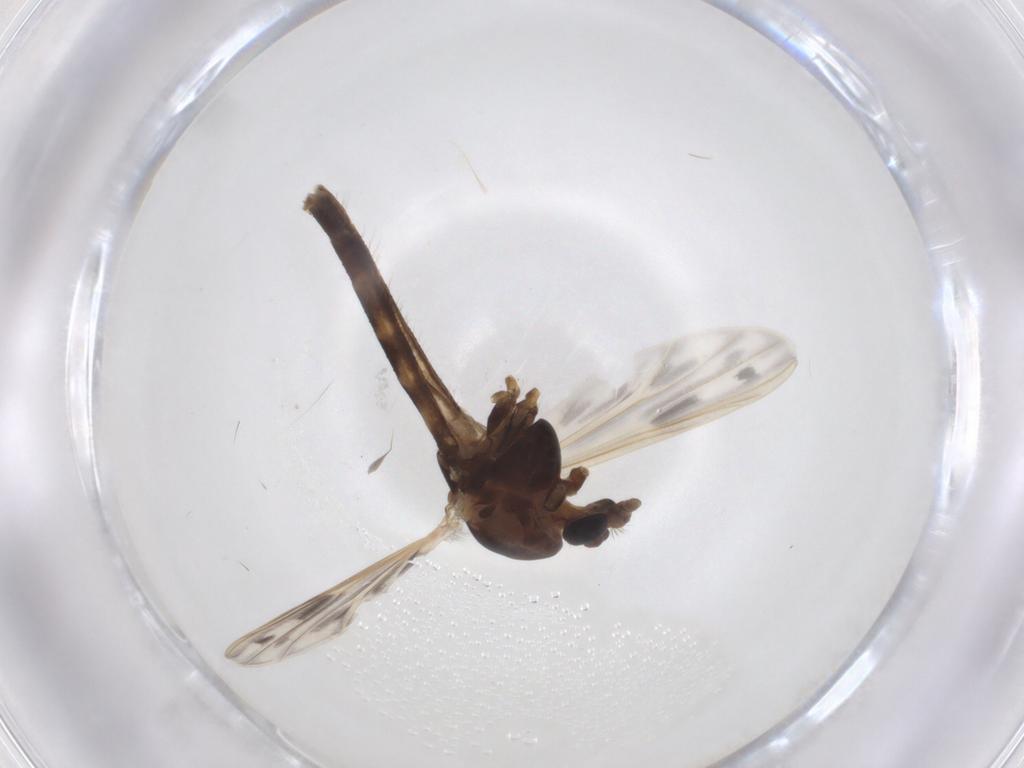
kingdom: Animalia
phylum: Arthropoda
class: Insecta
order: Diptera
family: Chironomidae
